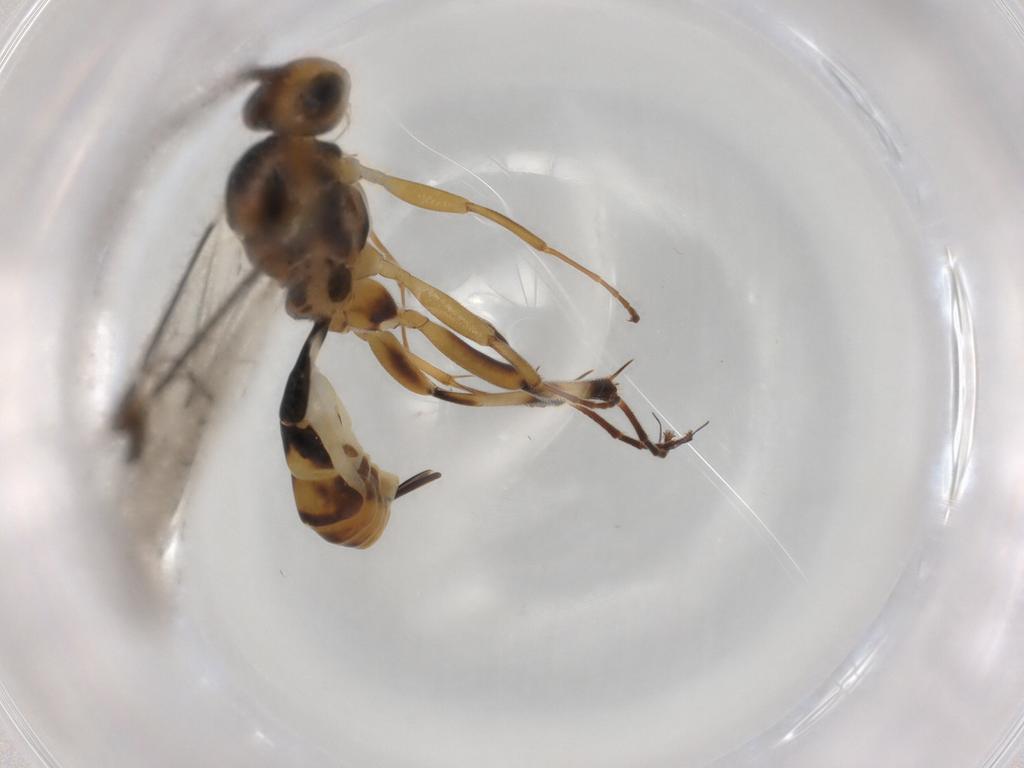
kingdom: Animalia
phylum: Arthropoda
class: Insecta
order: Hymenoptera
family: Ichneumonidae
